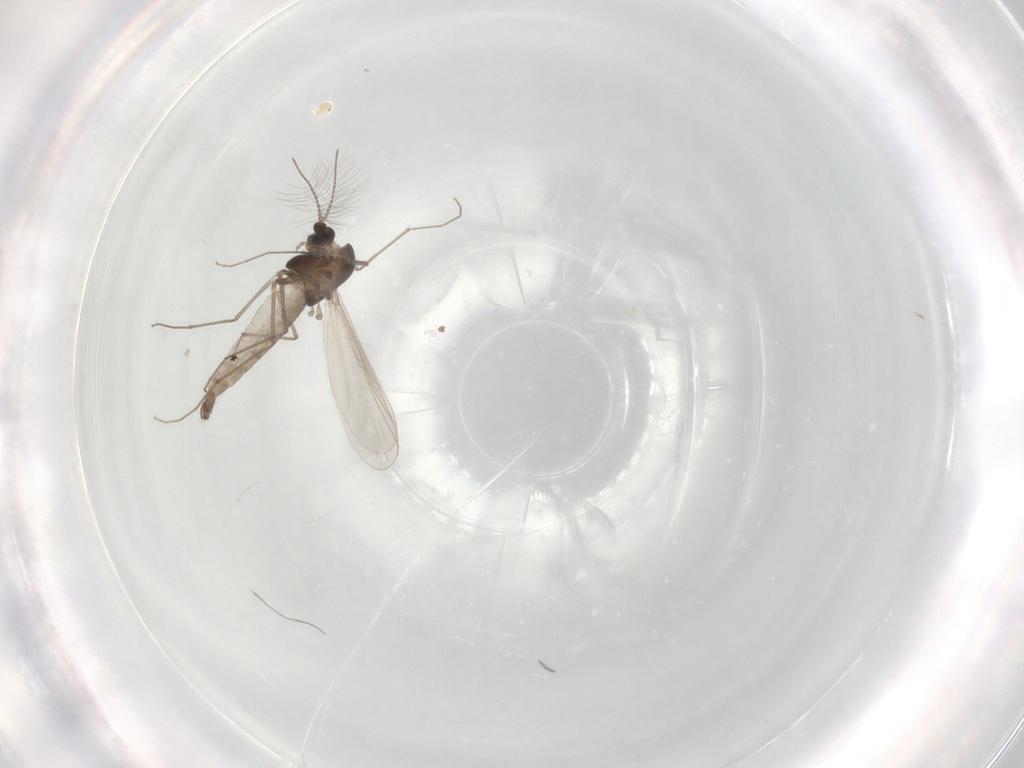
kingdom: Animalia
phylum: Arthropoda
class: Insecta
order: Diptera
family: Chironomidae
